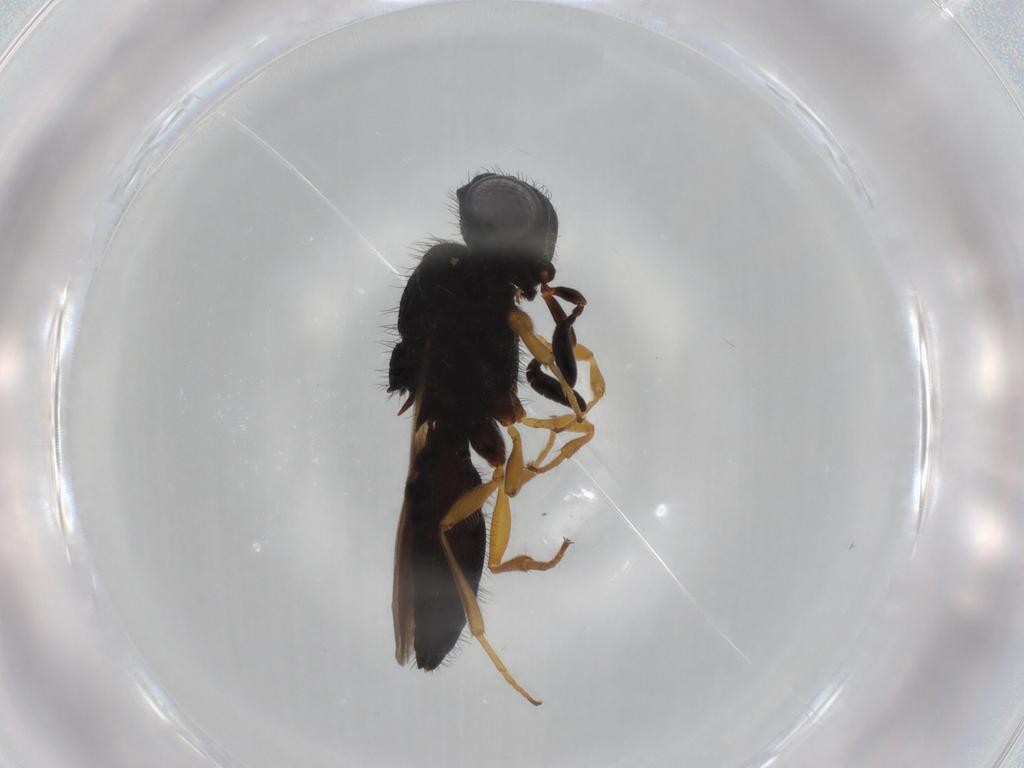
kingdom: Animalia
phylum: Arthropoda
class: Insecta
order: Hymenoptera
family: Scelionidae
